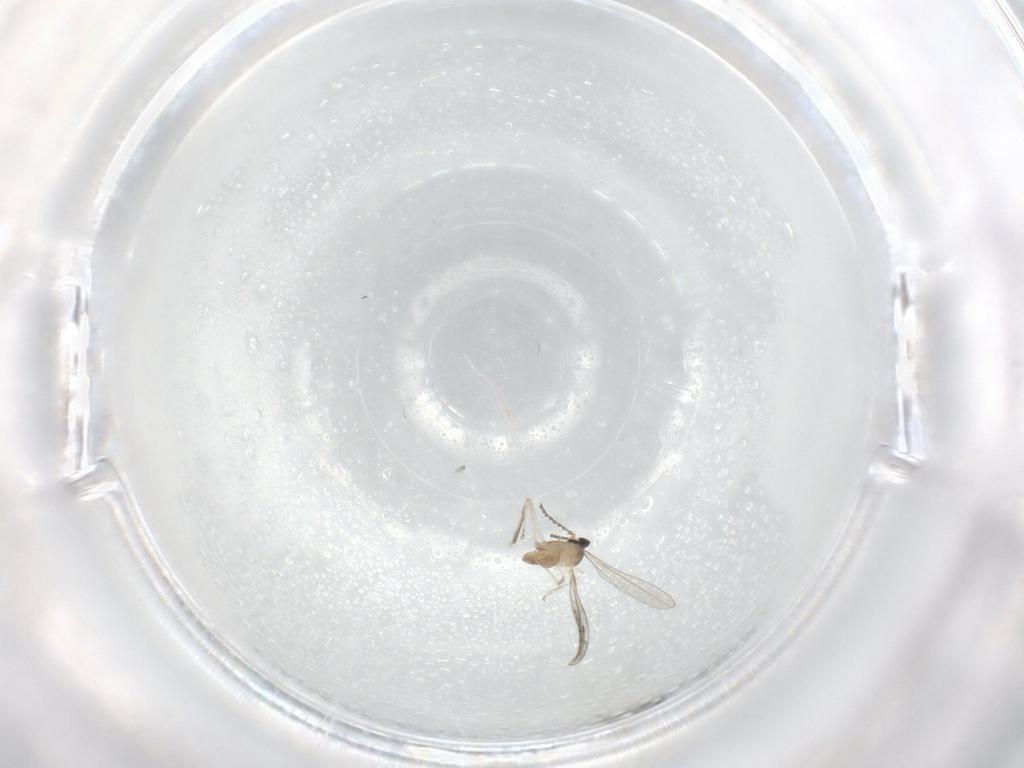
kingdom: Animalia
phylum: Arthropoda
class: Insecta
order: Diptera
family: Cecidomyiidae
